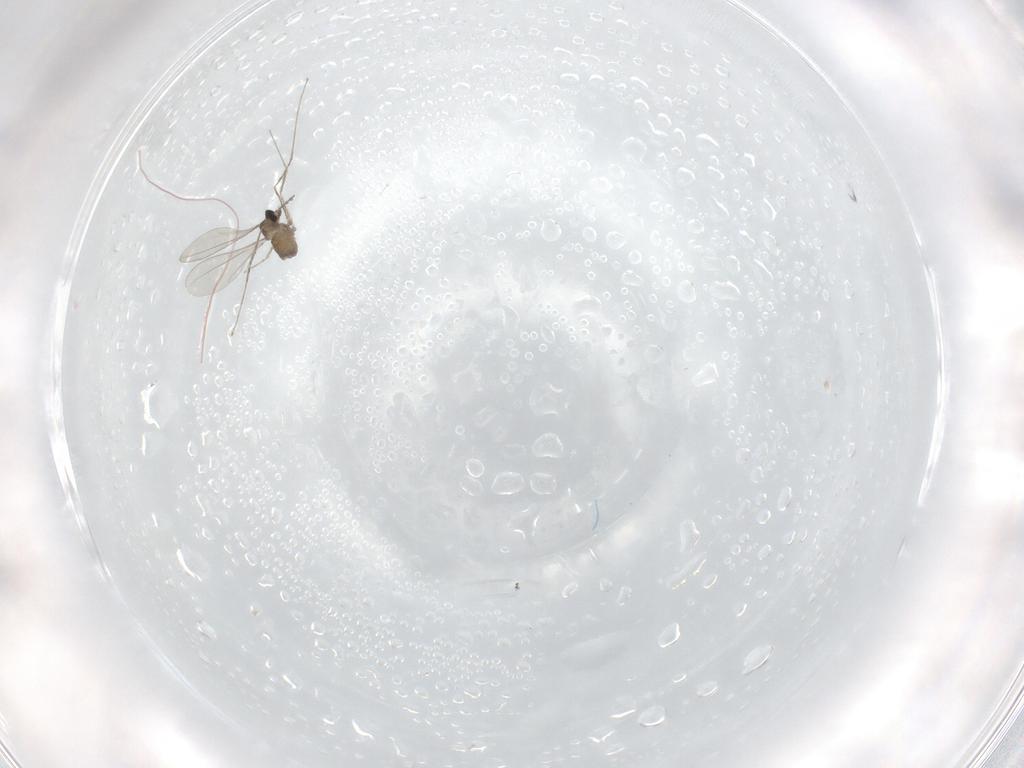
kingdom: Animalia
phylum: Arthropoda
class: Insecta
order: Diptera
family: Cecidomyiidae
